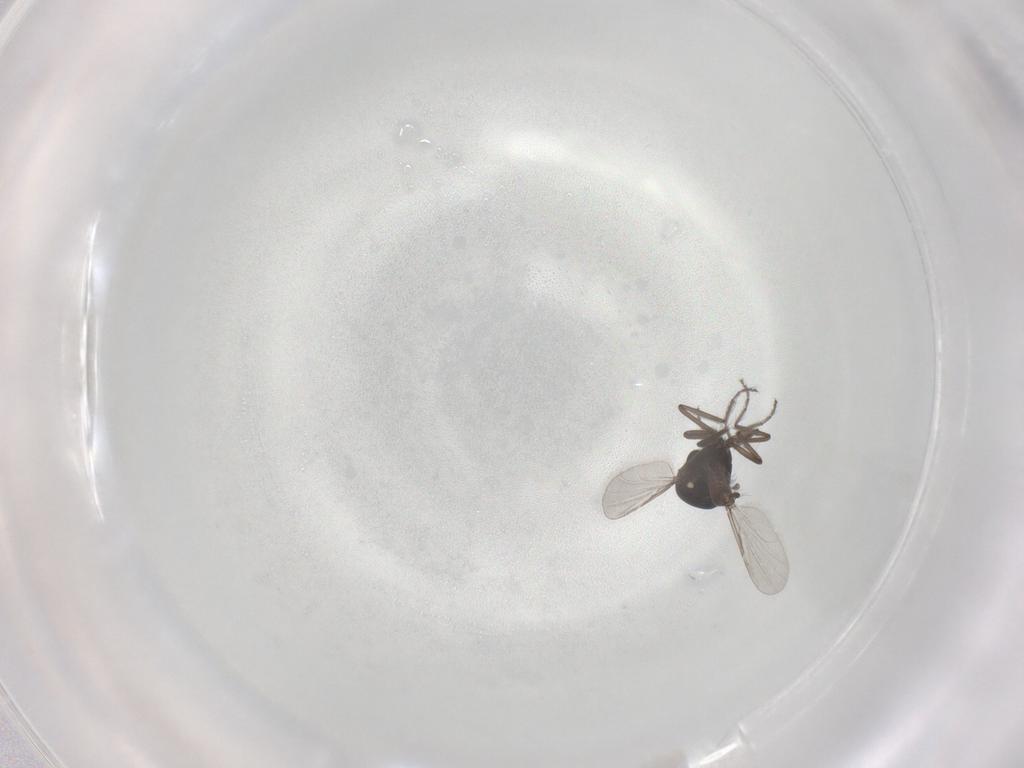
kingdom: Animalia
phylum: Arthropoda
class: Insecta
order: Diptera
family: Ceratopogonidae
